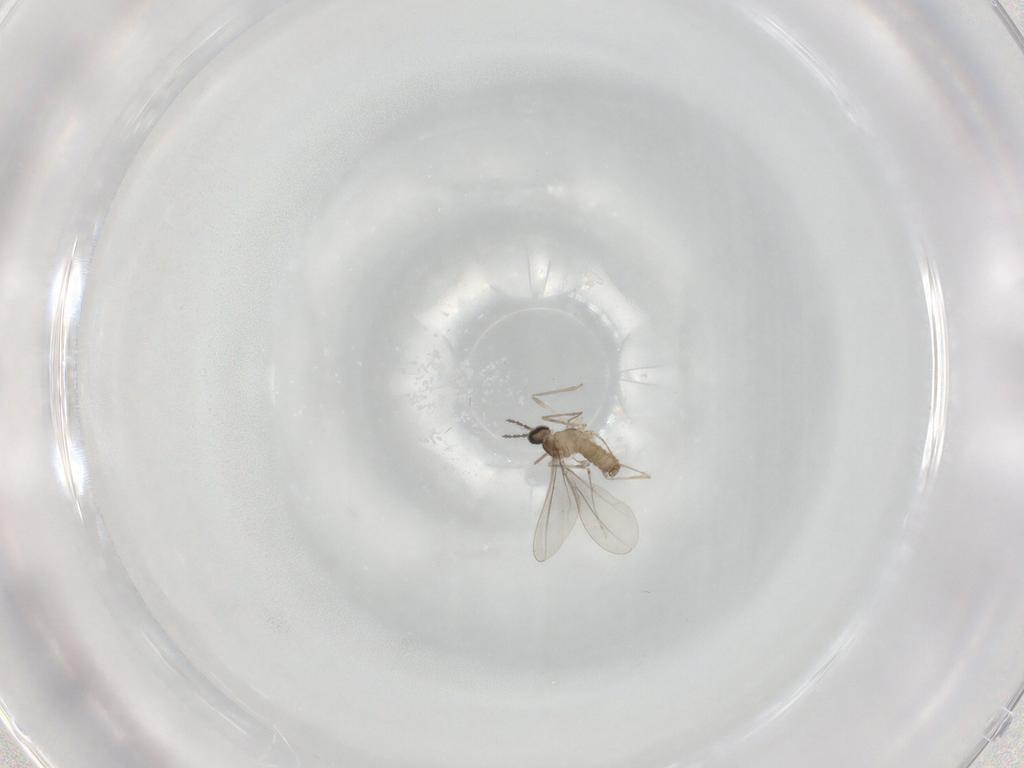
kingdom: Animalia
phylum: Arthropoda
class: Insecta
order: Diptera
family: Cecidomyiidae
